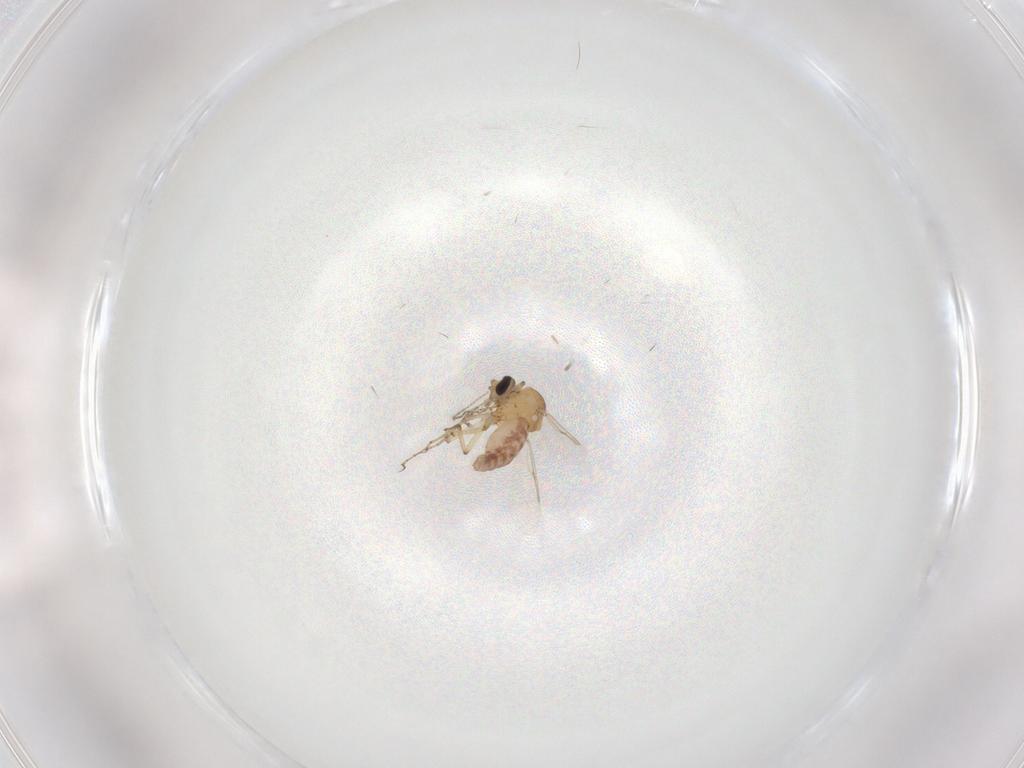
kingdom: Animalia
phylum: Arthropoda
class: Insecta
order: Diptera
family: Ceratopogonidae
